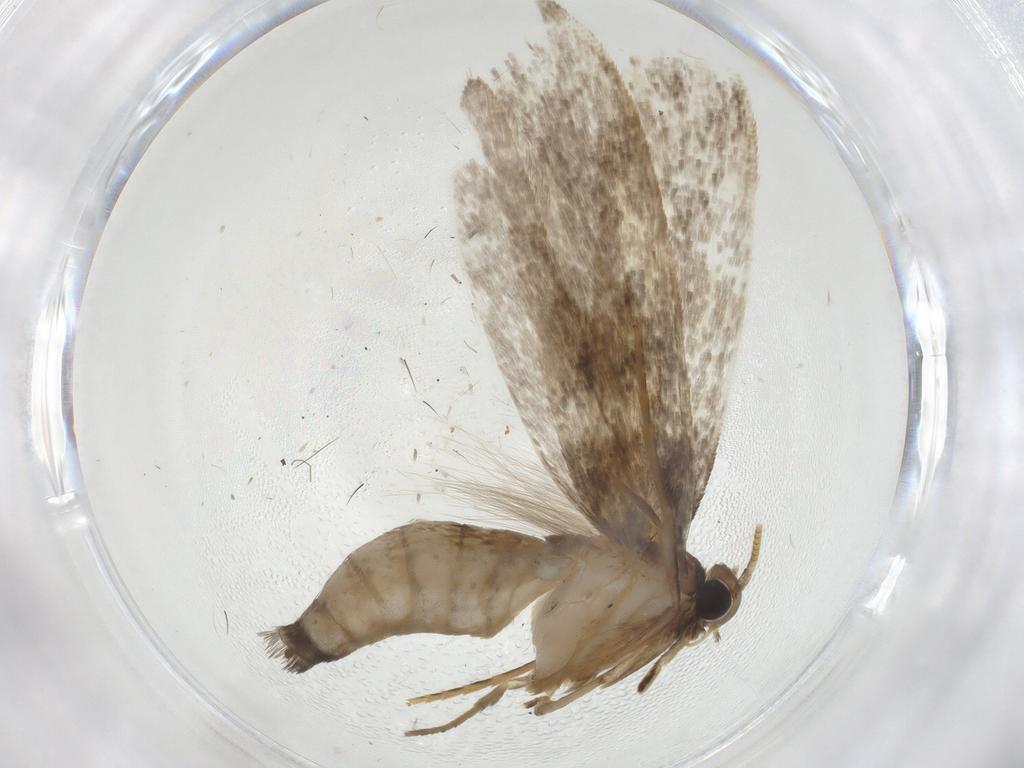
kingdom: Animalia
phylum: Arthropoda
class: Insecta
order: Lepidoptera
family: Tineidae
